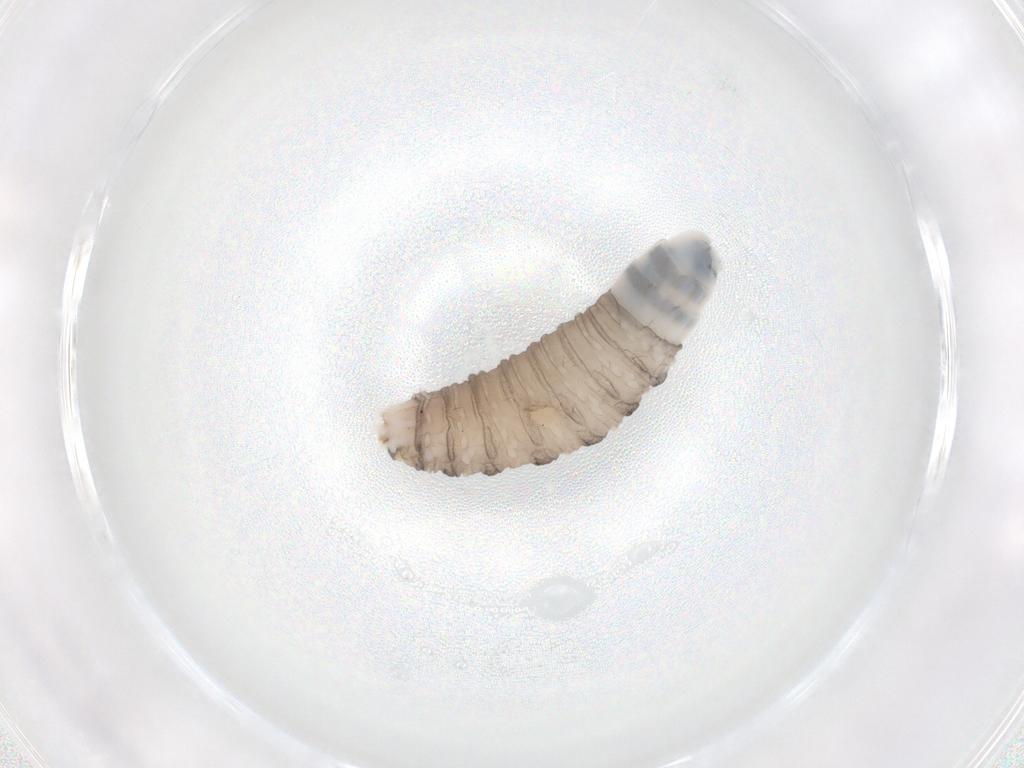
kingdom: Animalia
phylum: Arthropoda
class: Insecta
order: Diptera
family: Sarcophagidae
